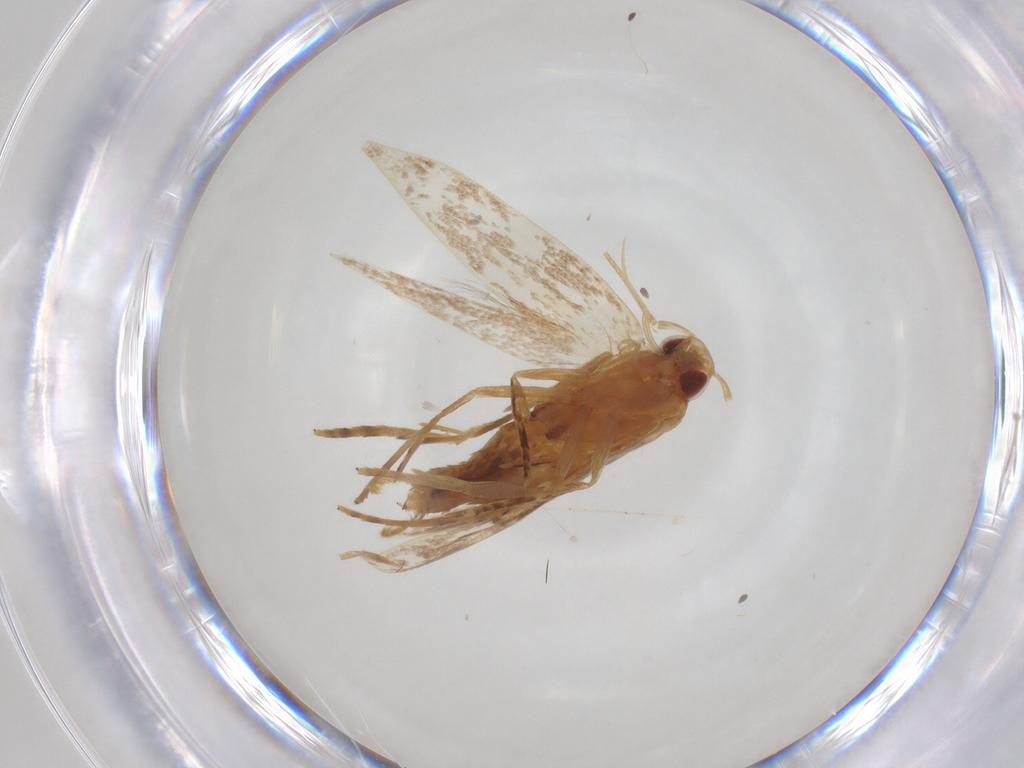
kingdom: Animalia
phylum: Arthropoda
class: Insecta
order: Lepidoptera
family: Cosmopterigidae
